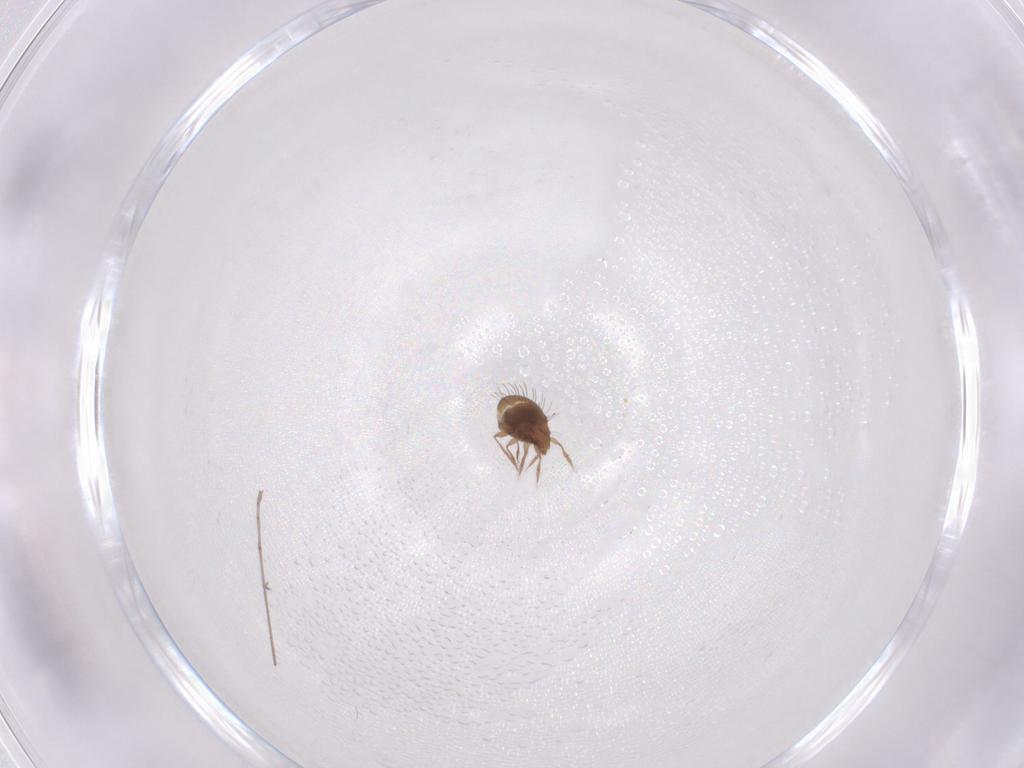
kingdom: Animalia
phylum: Arthropoda
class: Arachnida
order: Sarcoptiformes
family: Caloppiidae
